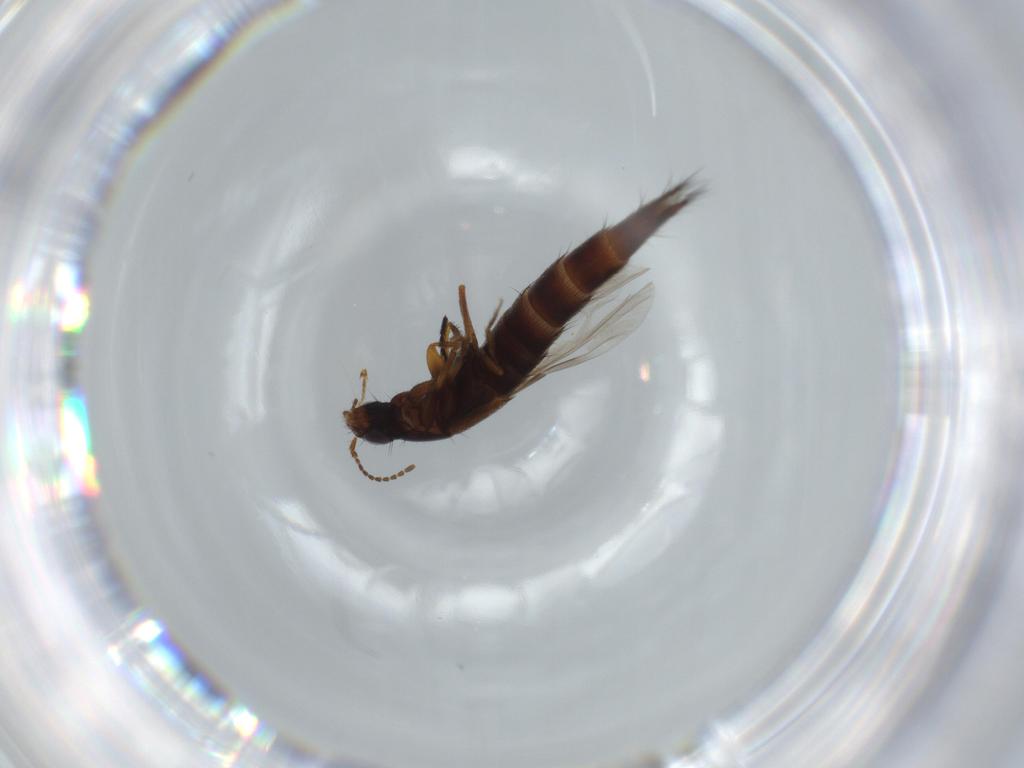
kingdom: Animalia
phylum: Arthropoda
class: Insecta
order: Coleoptera
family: Staphylinidae
